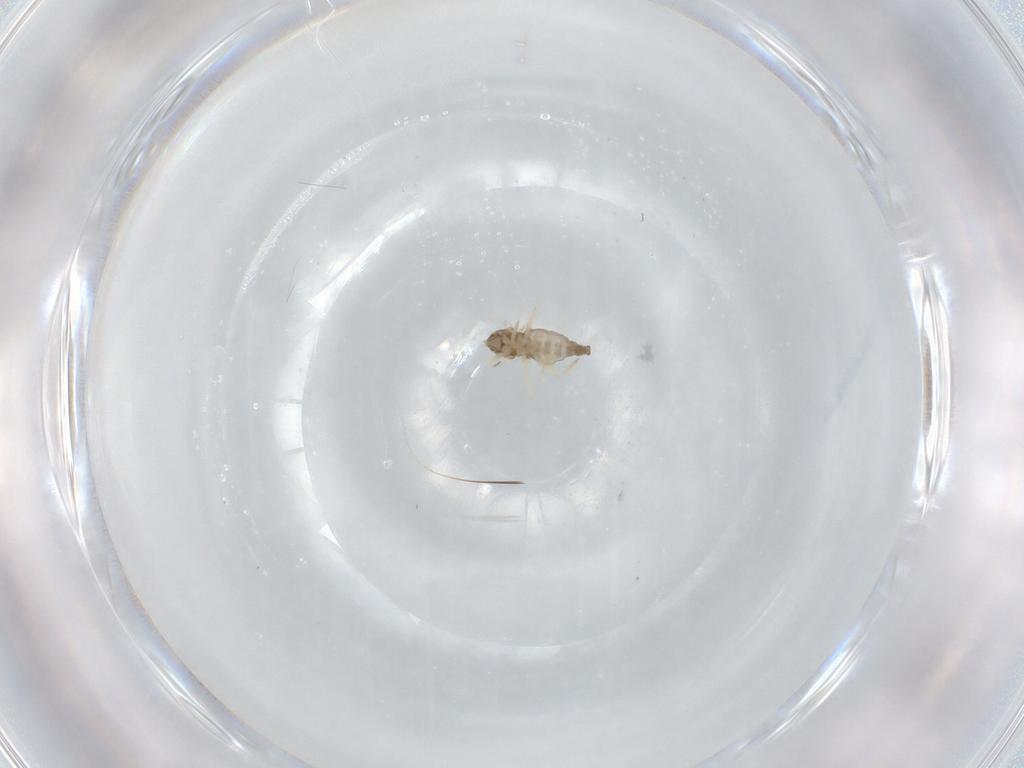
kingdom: Animalia
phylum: Arthropoda
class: Insecta
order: Diptera
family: Cecidomyiidae
